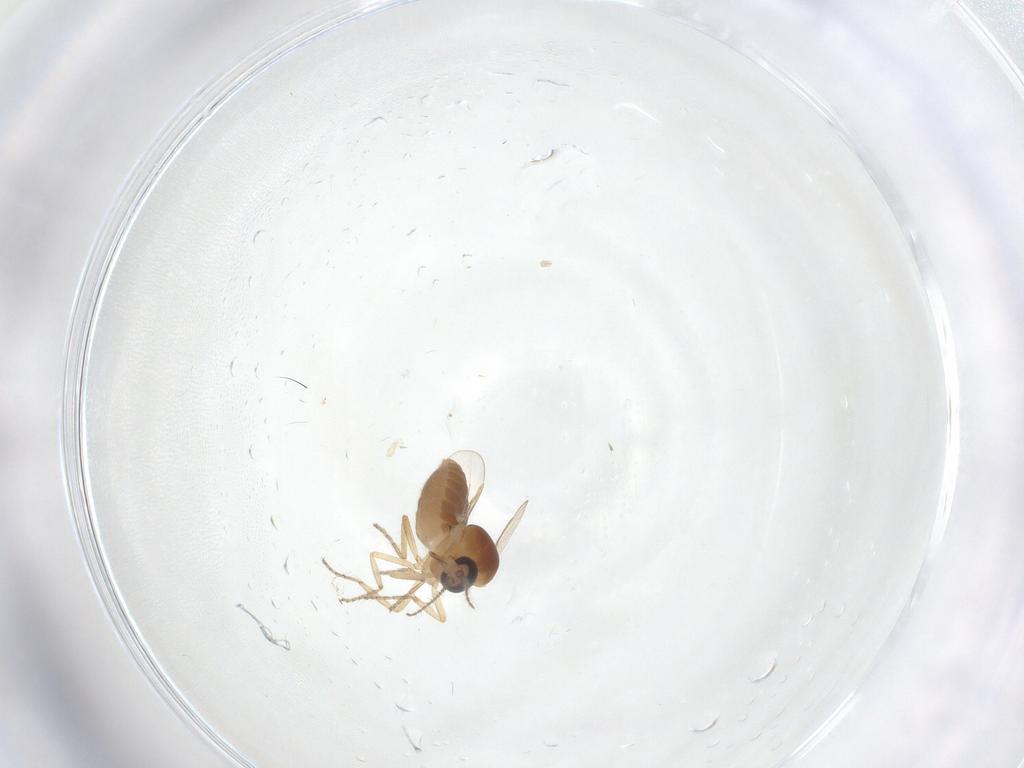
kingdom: Animalia
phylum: Arthropoda
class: Insecta
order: Diptera
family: Ceratopogonidae
